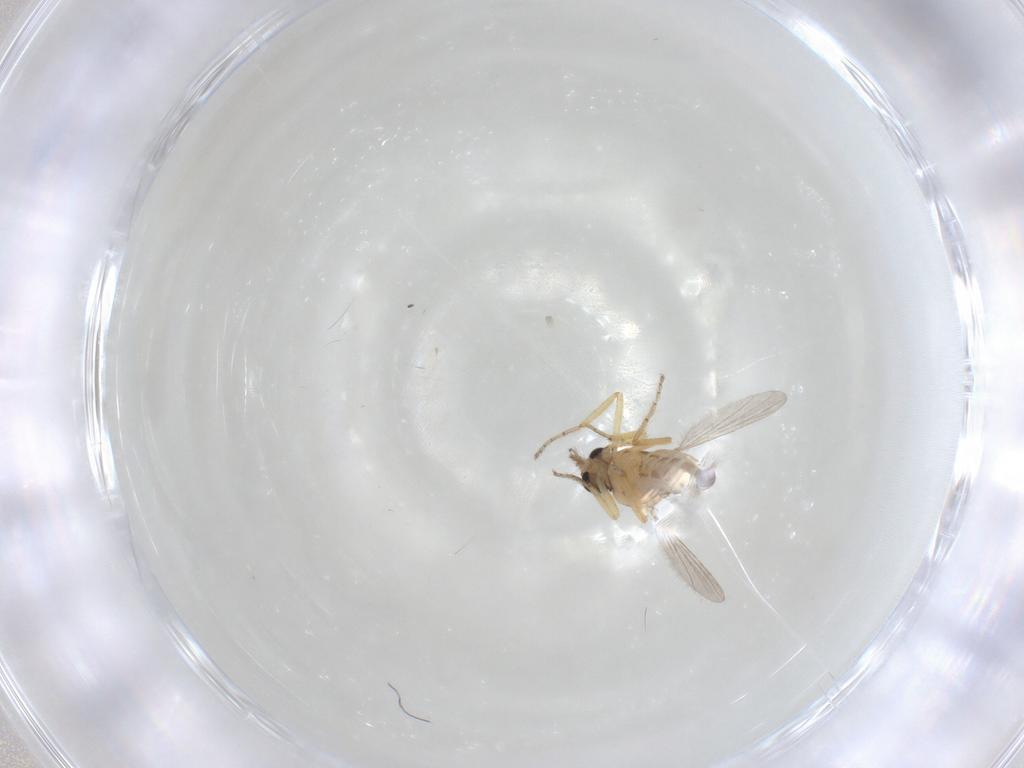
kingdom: Animalia
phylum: Arthropoda
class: Insecta
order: Diptera
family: Ceratopogonidae
